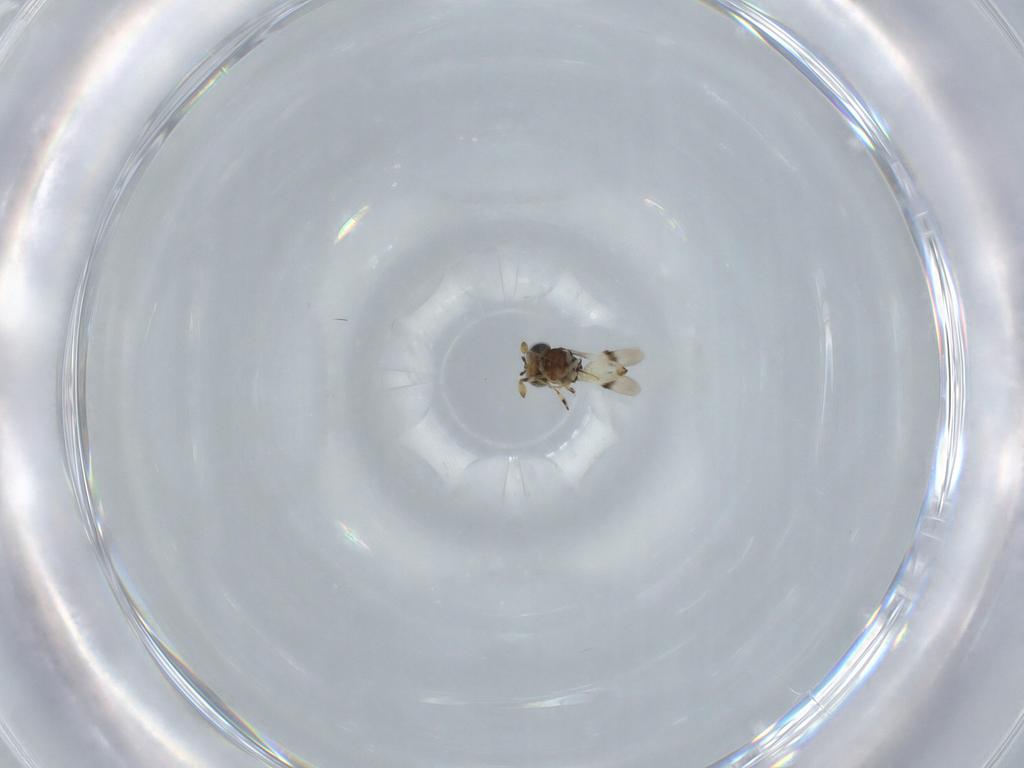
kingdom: Animalia
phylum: Arthropoda
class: Insecta
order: Hymenoptera
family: Scelionidae
